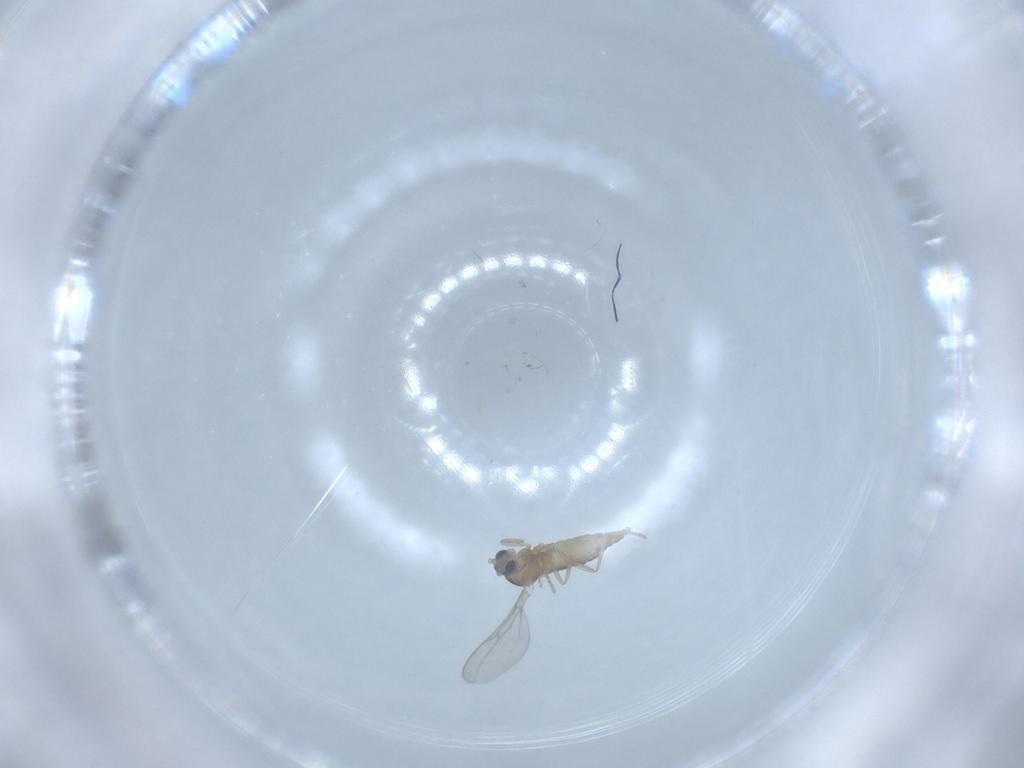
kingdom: Animalia
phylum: Arthropoda
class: Insecta
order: Diptera
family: Cecidomyiidae
